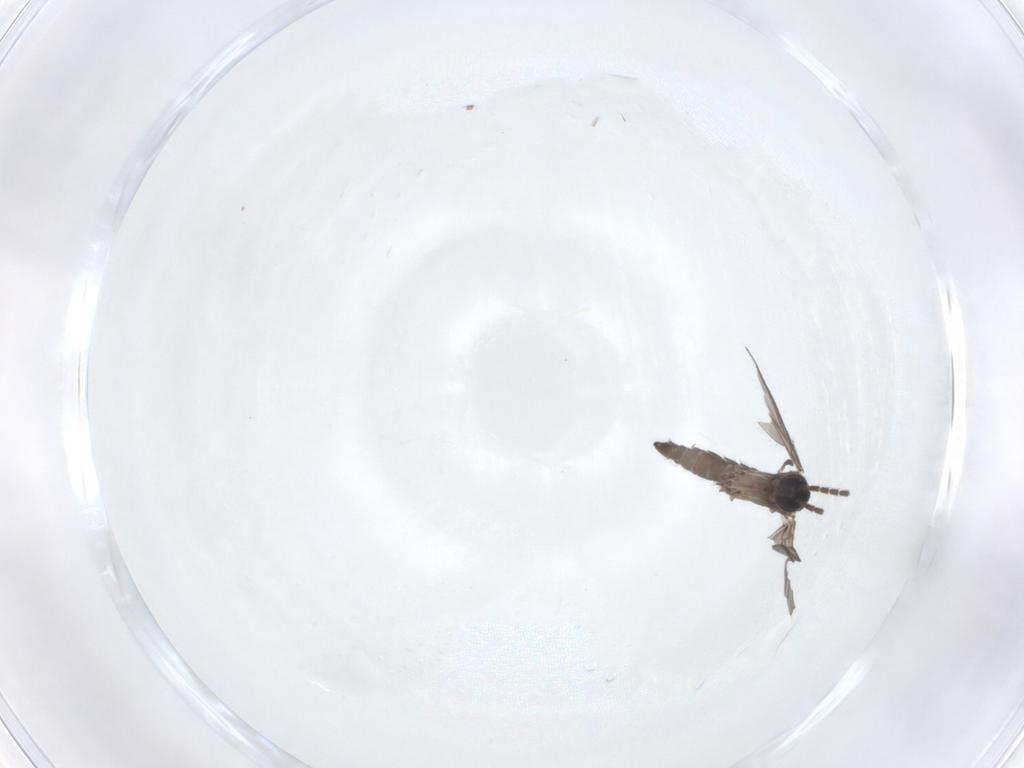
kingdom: Animalia
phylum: Arthropoda
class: Insecta
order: Diptera
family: Sciaridae
